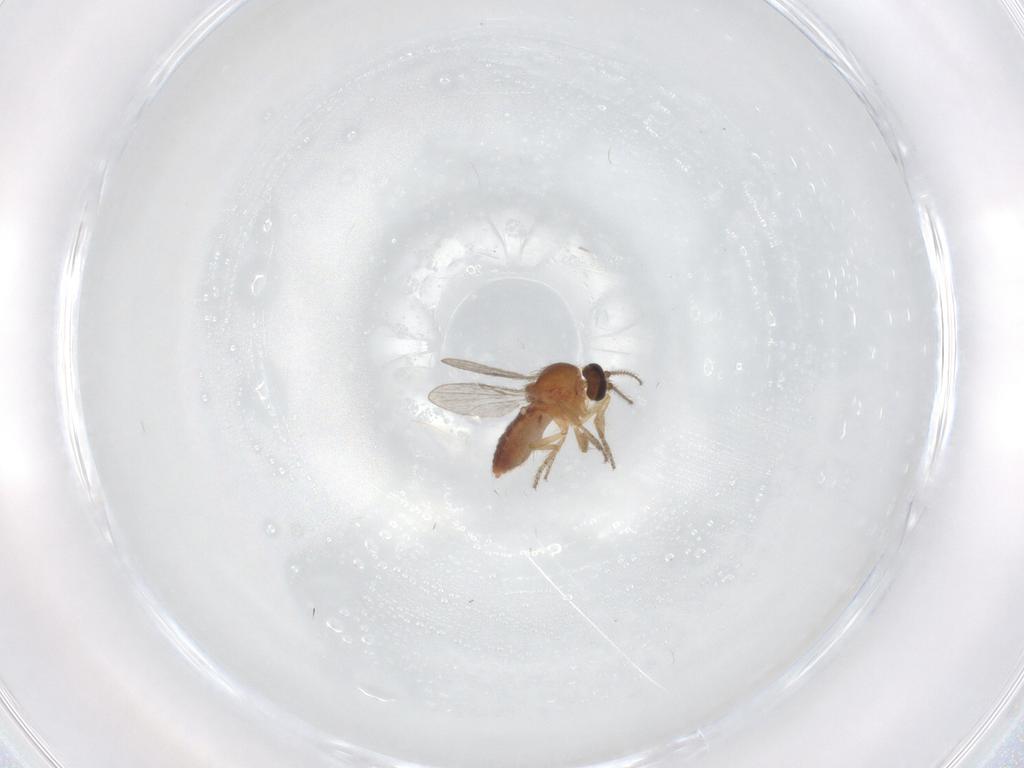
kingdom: Animalia
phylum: Arthropoda
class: Insecta
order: Diptera
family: Ceratopogonidae
